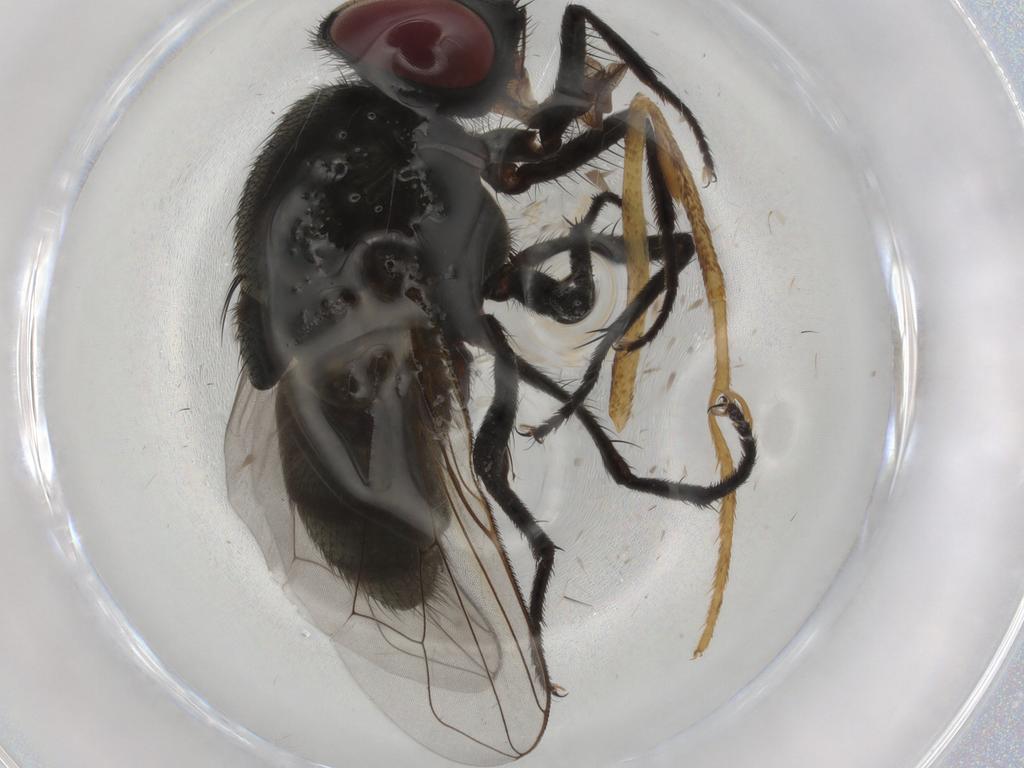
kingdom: Animalia
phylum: Arthropoda
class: Insecta
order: Diptera
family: Muscidae
